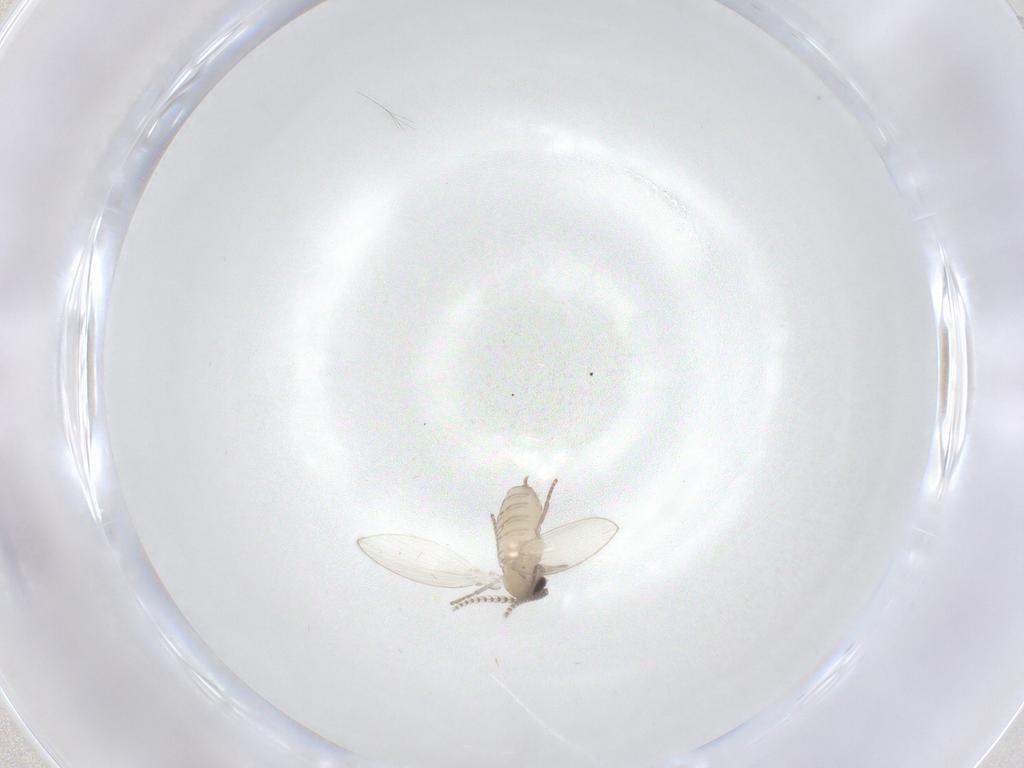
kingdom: Animalia
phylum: Arthropoda
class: Insecta
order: Diptera
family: Psychodidae
